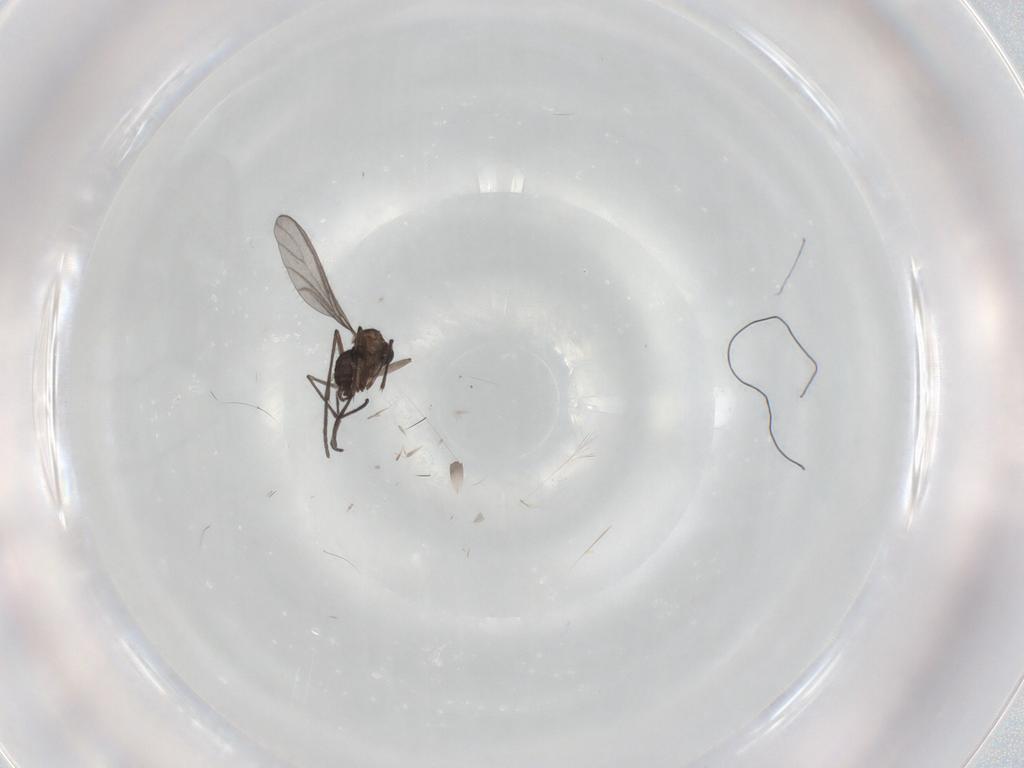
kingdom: Animalia
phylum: Arthropoda
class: Insecta
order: Diptera
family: Cecidomyiidae
